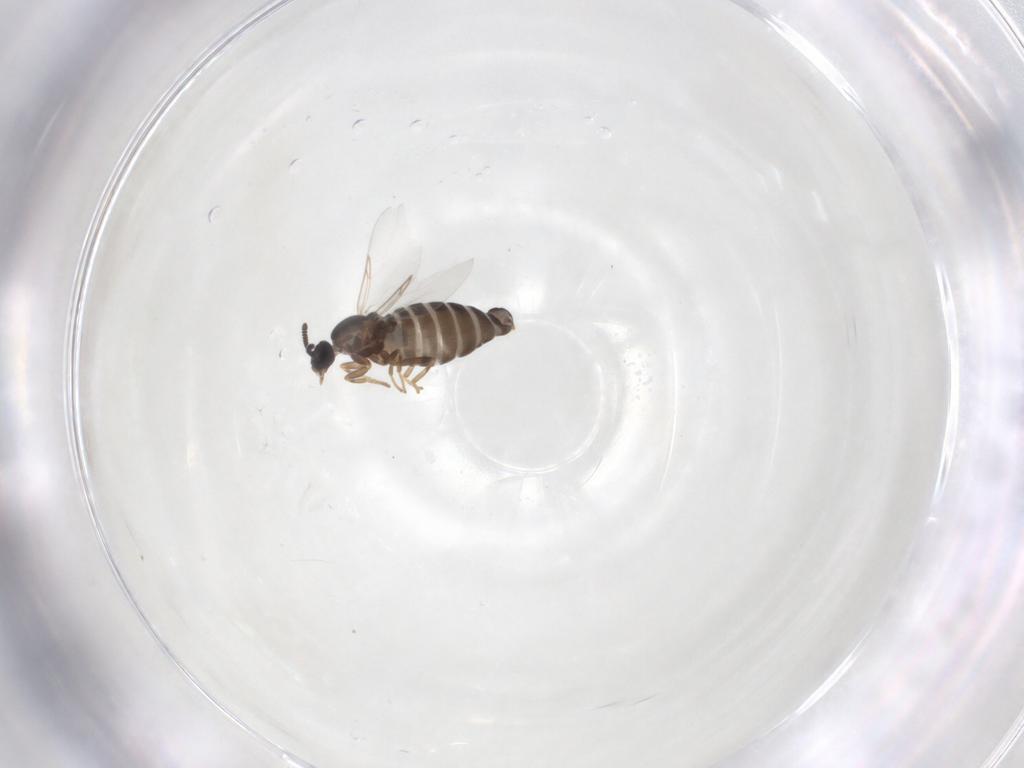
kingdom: Animalia
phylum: Arthropoda
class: Insecta
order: Diptera
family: Scatopsidae
